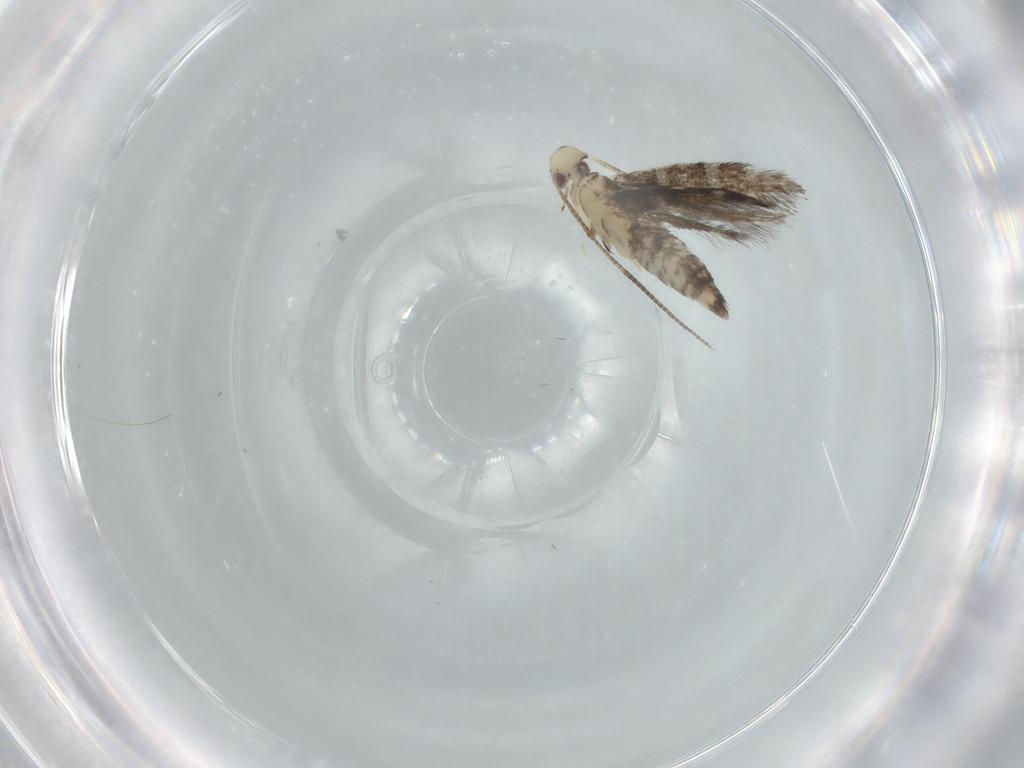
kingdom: Animalia
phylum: Arthropoda
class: Insecta
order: Lepidoptera
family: Gracillariidae
